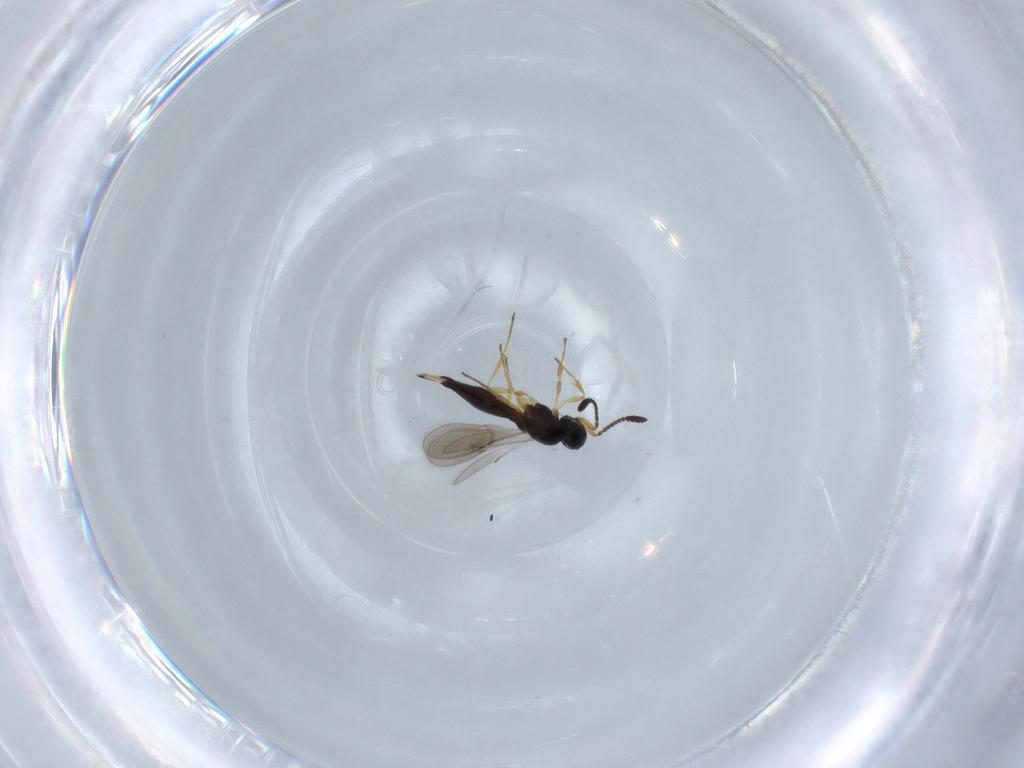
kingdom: Animalia
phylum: Arthropoda
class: Insecta
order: Hymenoptera
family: Scelionidae
